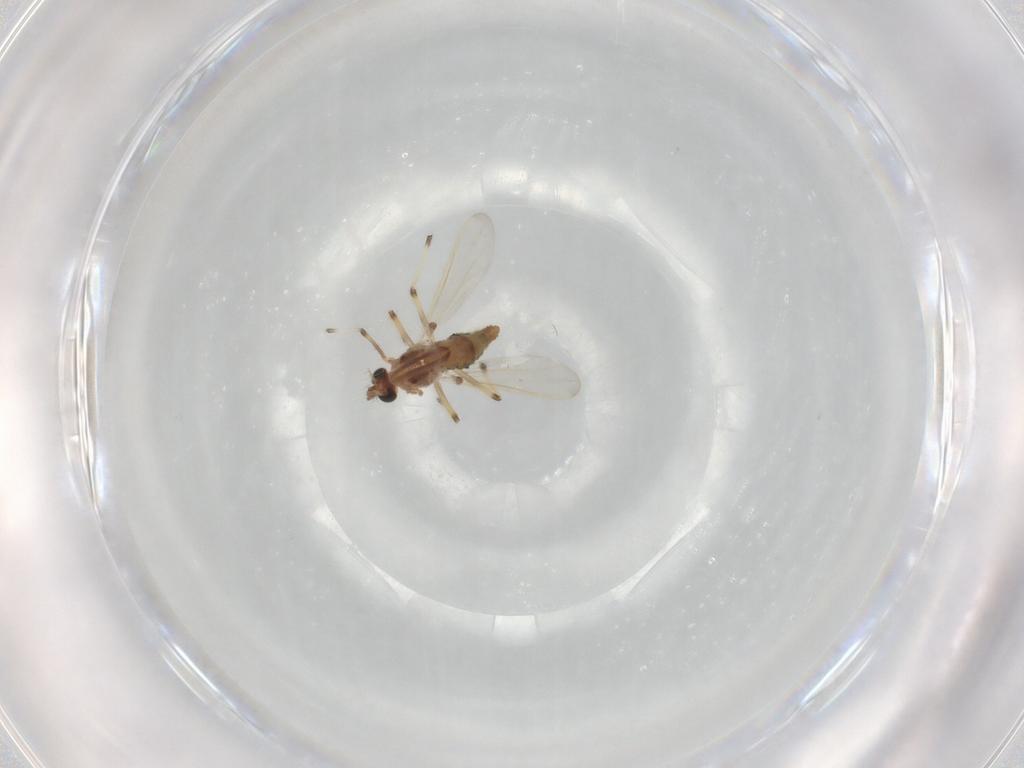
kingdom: Animalia
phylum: Arthropoda
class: Insecta
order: Diptera
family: Chironomidae
